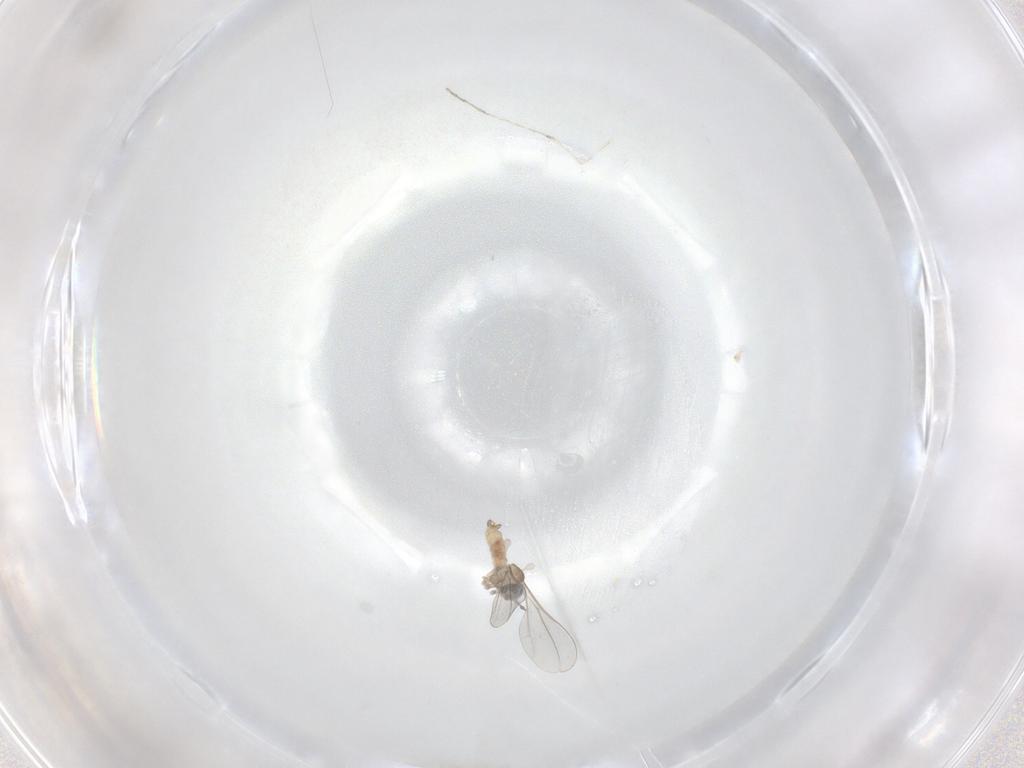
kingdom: Animalia
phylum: Arthropoda
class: Insecta
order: Diptera
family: Cecidomyiidae
